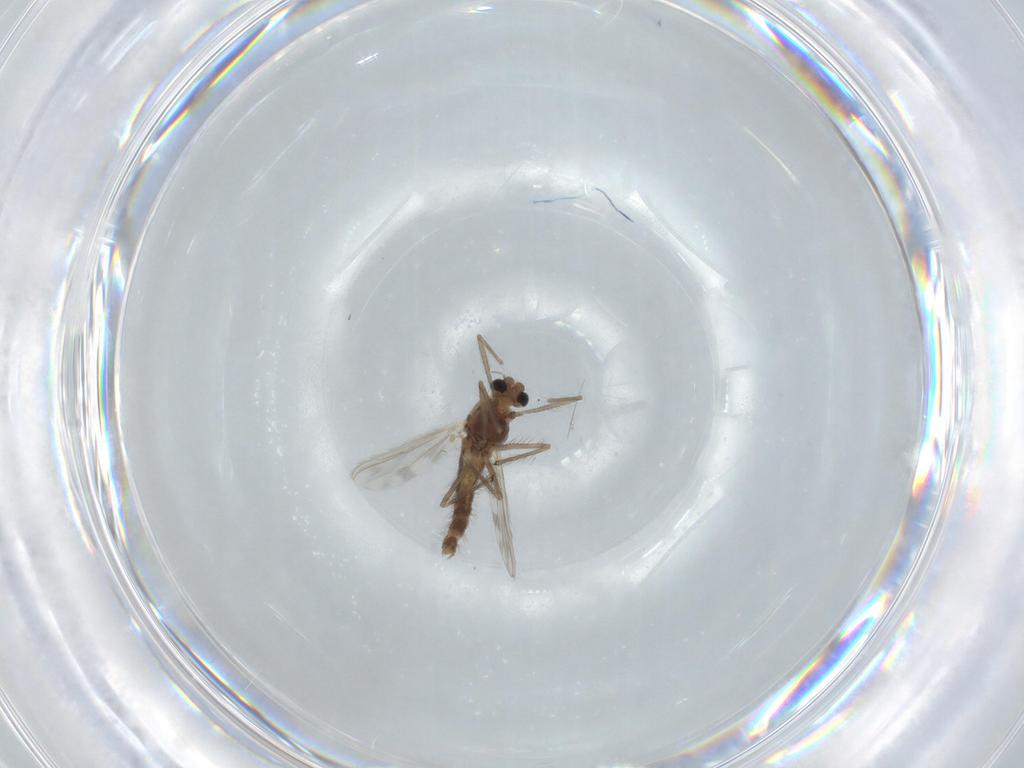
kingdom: Animalia
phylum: Arthropoda
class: Insecta
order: Diptera
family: Chironomidae
